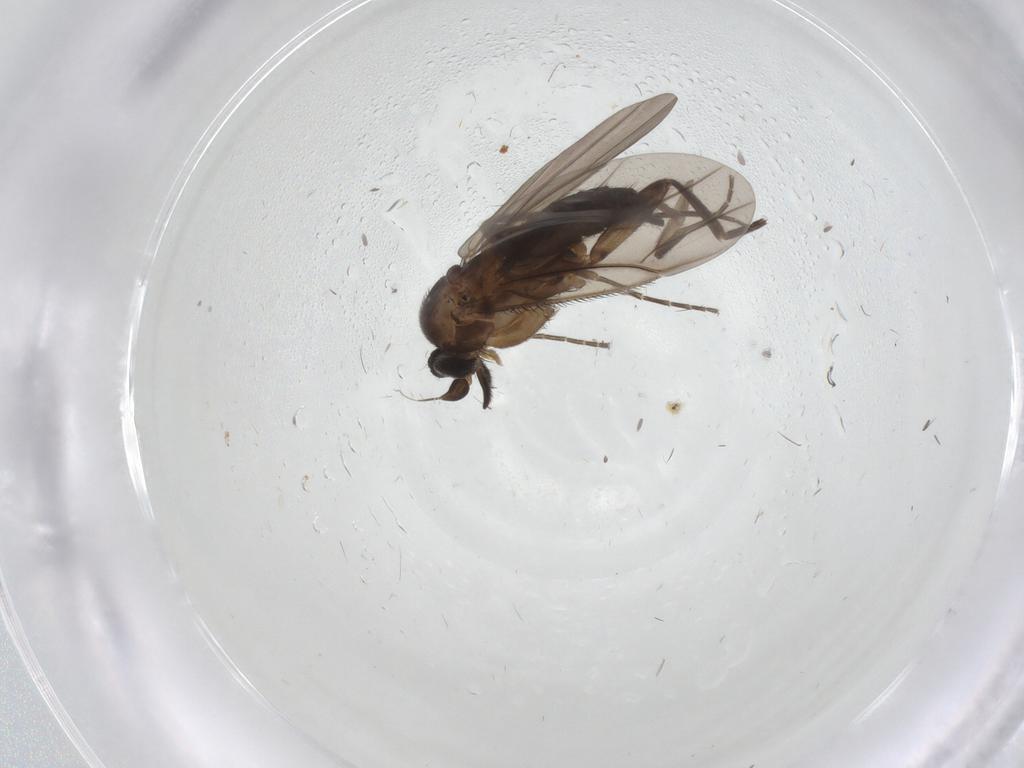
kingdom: Animalia
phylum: Arthropoda
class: Insecta
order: Diptera
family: Phoridae
